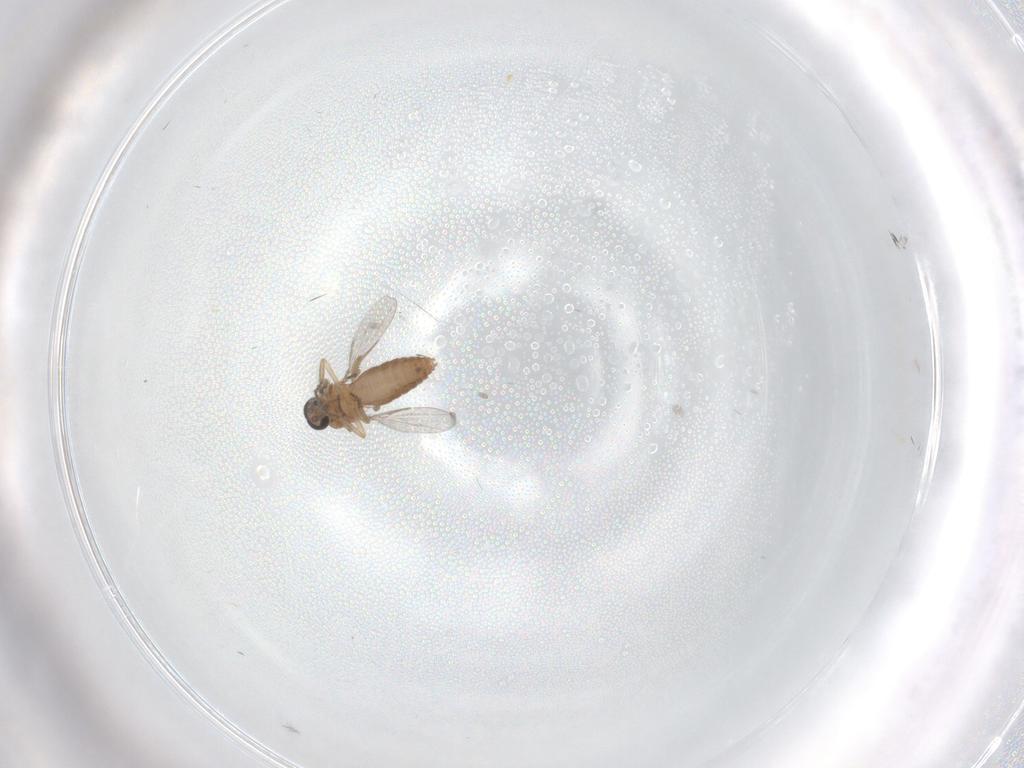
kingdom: Animalia
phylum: Arthropoda
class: Insecta
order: Diptera
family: Ceratopogonidae
